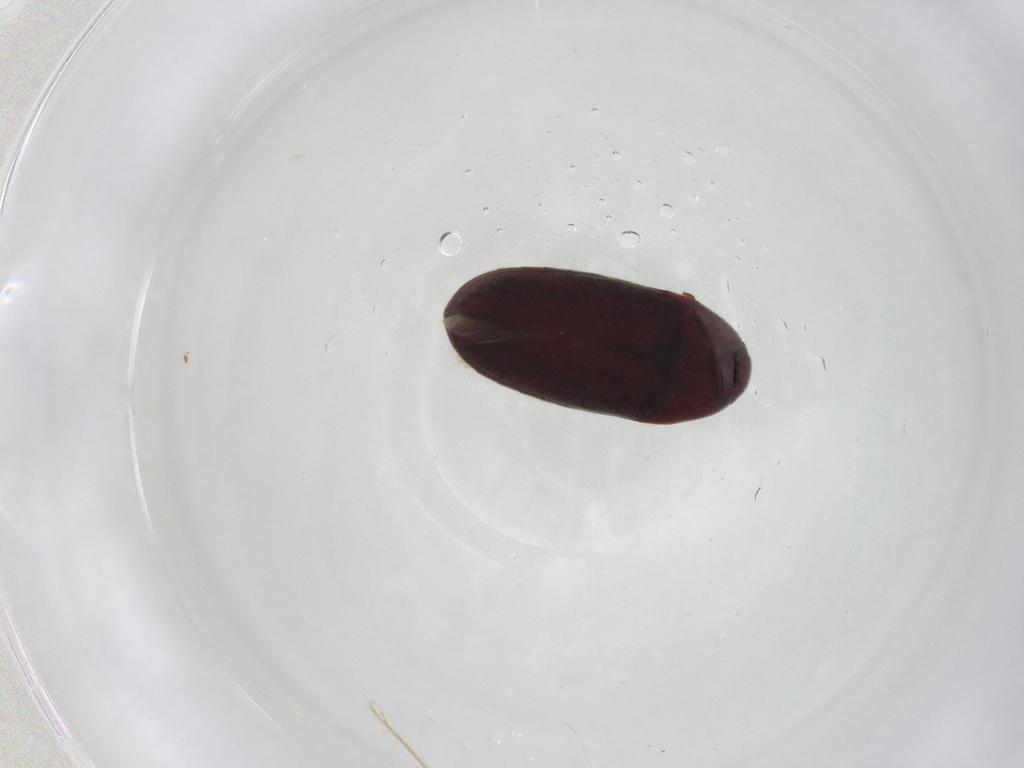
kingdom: Animalia
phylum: Arthropoda
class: Insecta
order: Coleoptera
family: Throscidae
